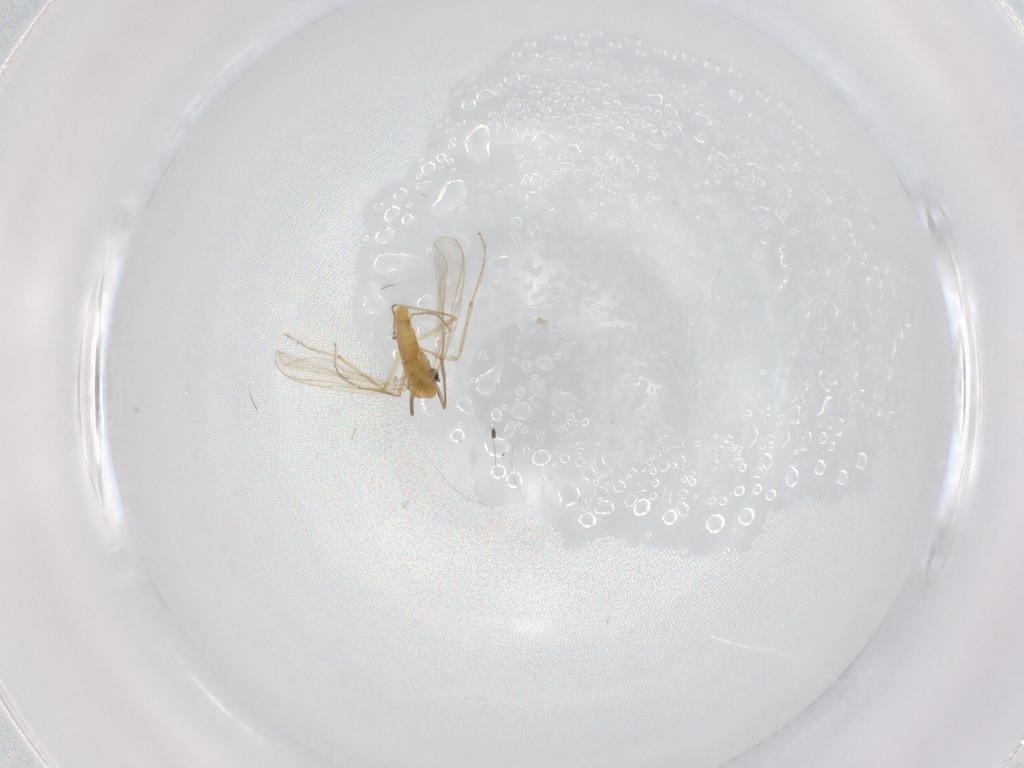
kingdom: Animalia
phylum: Arthropoda
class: Insecta
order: Diptera
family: Chironomidae
